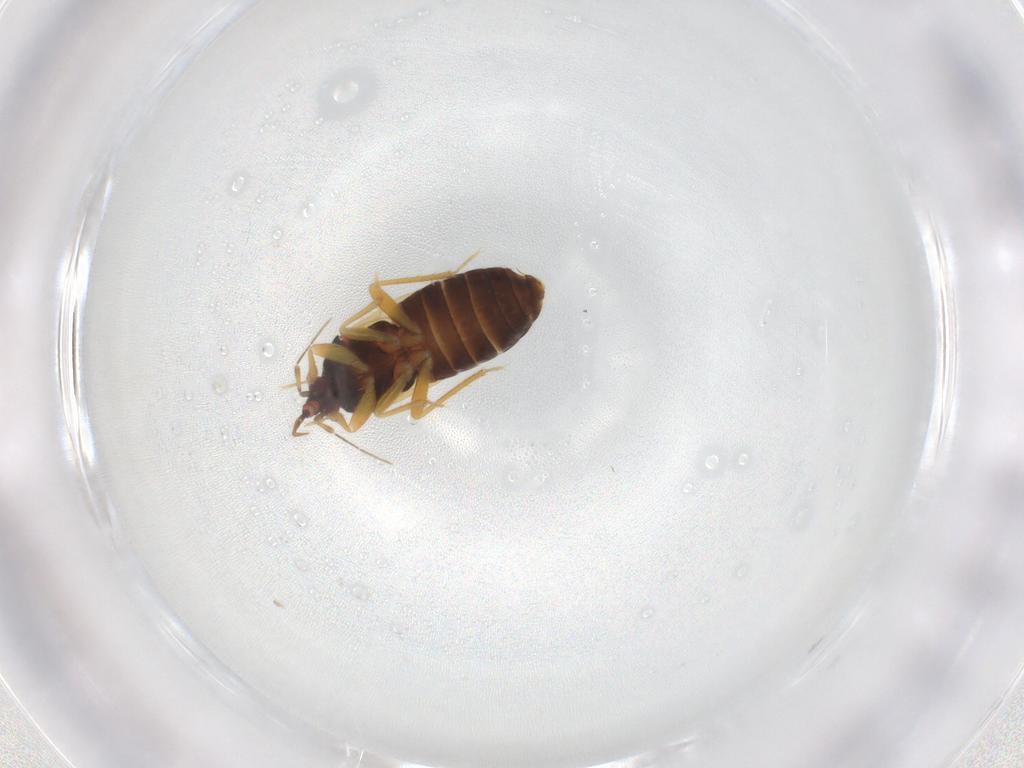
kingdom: Animalia
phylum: Arthropoda
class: Insecta
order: Hemiptera
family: Anthocoridae
